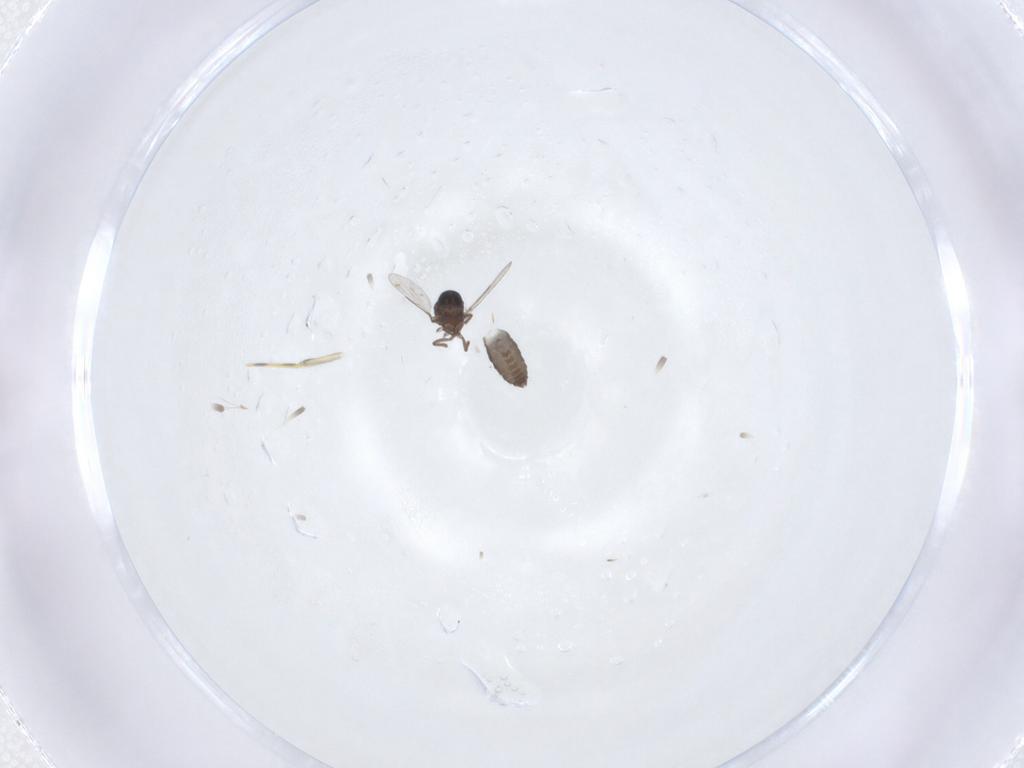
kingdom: Animalia
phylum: Arthropoda
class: Insecta
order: Diptera
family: Ceratopogonidae
